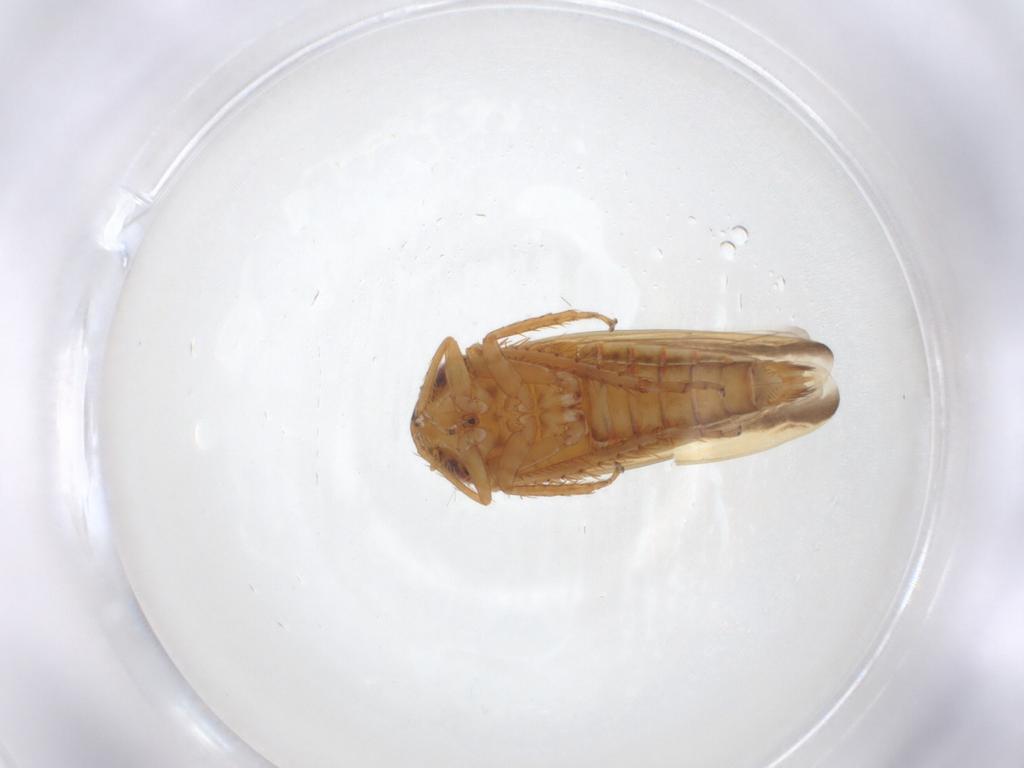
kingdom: Animalia
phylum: Arthropoda
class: Insecta
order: Hemiptera
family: Cicadellidae
